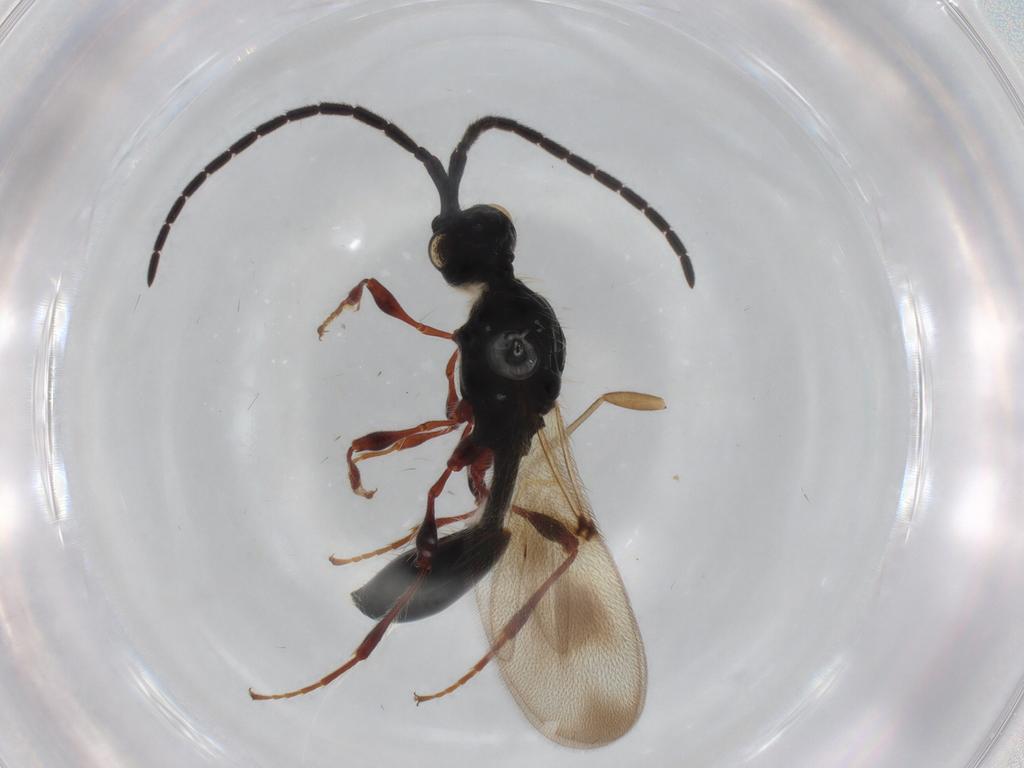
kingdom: Animalia
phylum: Arthropoda
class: Insecta
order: Hymenoptera
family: Diapriidae
